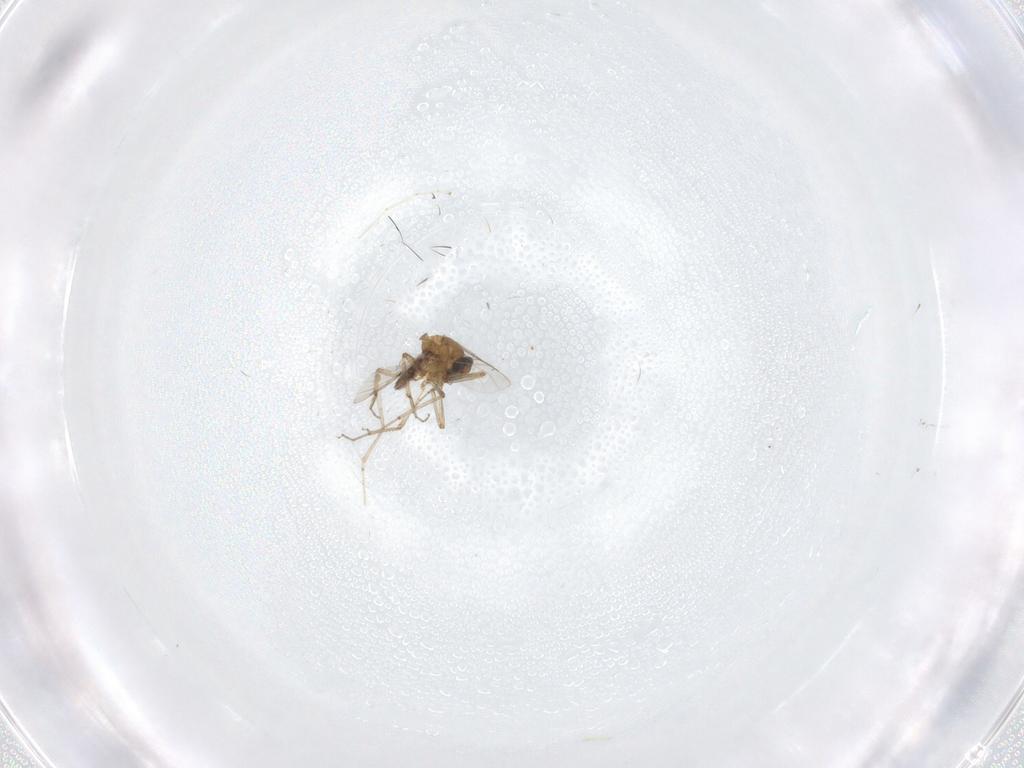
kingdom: Animalia
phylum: Arthropoda
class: Insecta
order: Diptera
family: Cecidomyiidae
